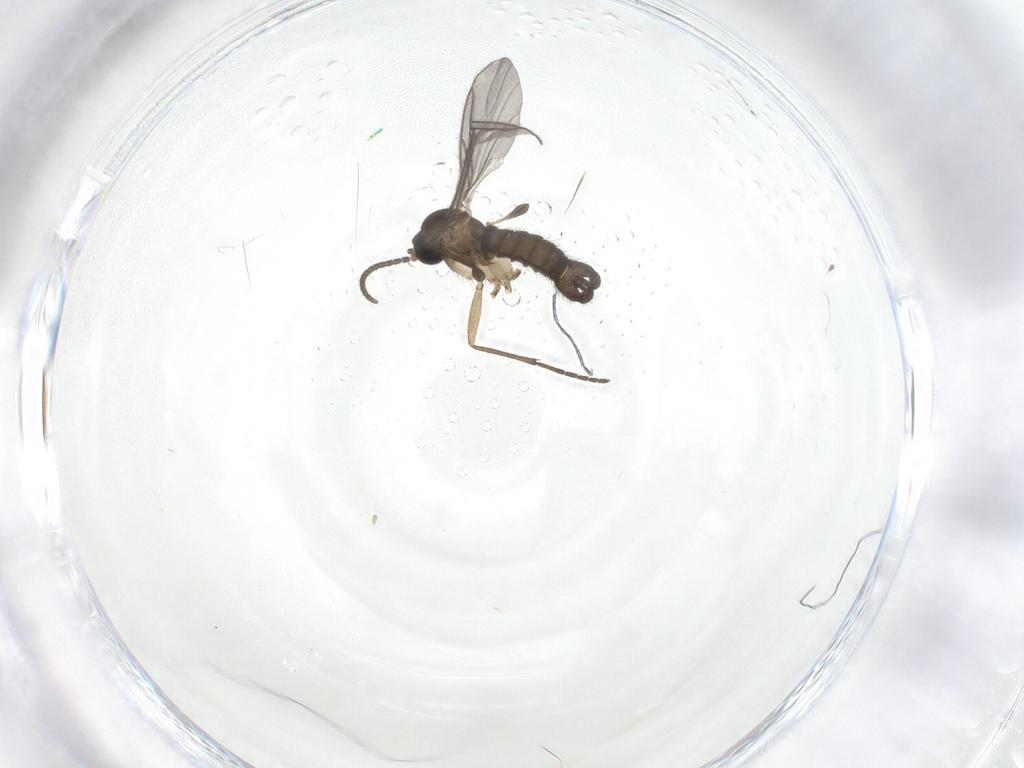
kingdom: Animalia
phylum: Arthropoda
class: Insecta
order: Diptera
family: Sciaridae
